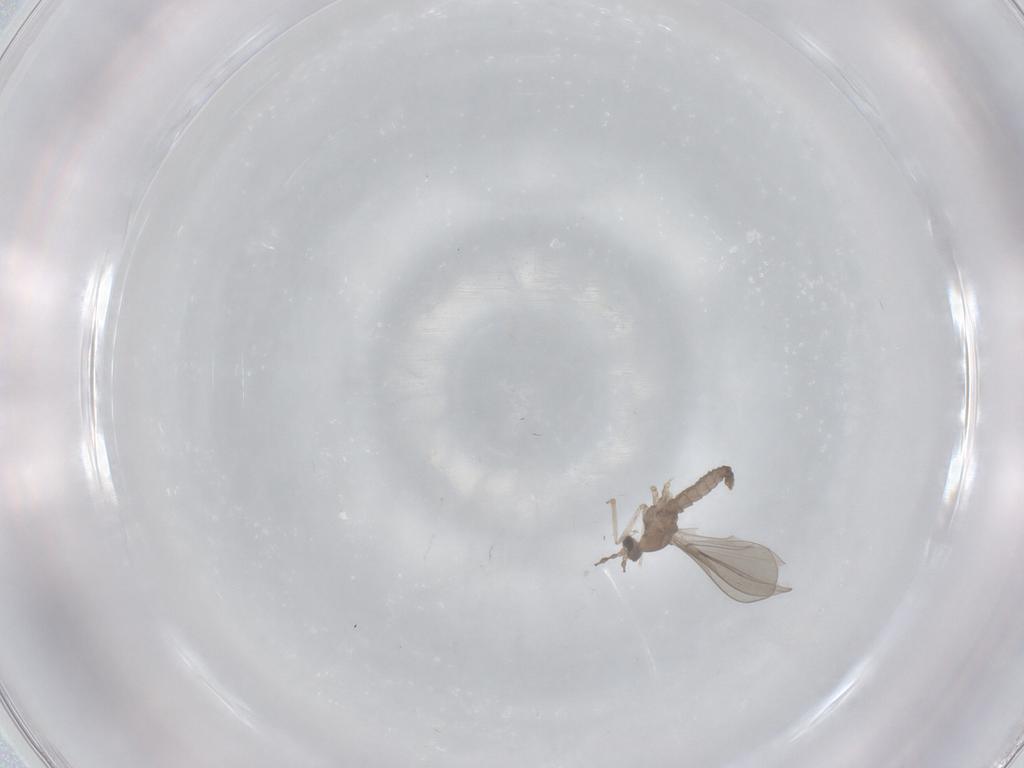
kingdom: Animalia
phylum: Arthropoda
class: Insecta
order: Diptera
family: Cecidomyiidae
